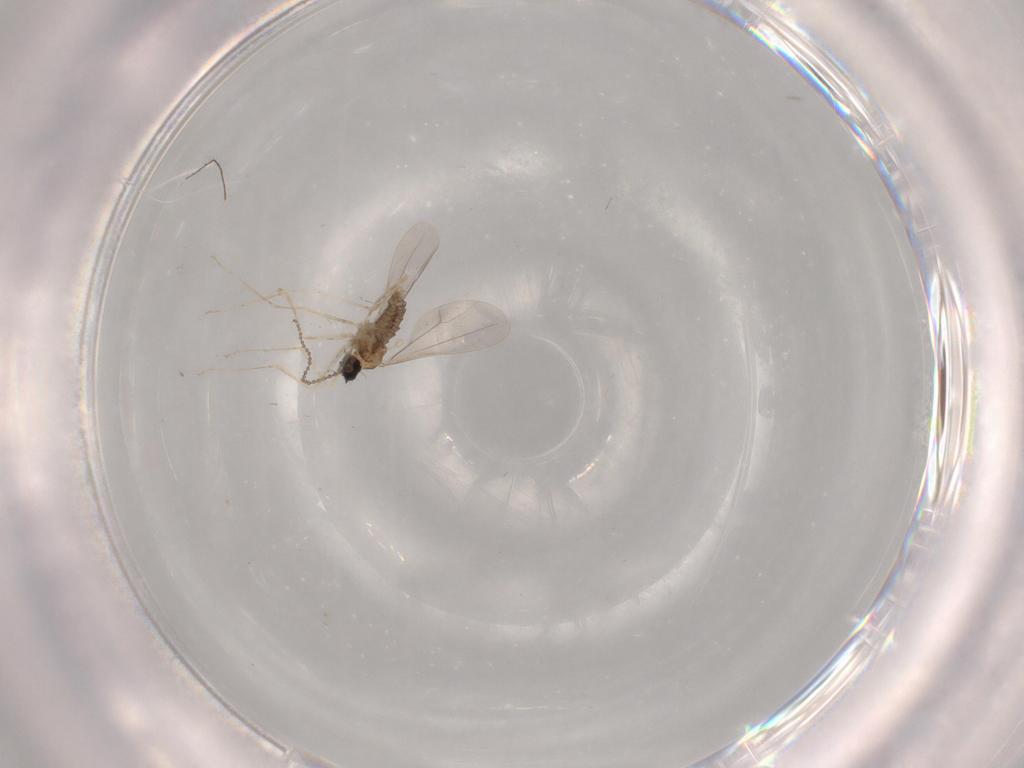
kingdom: Animalia
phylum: Arthropoda
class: Insecta
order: Diptera
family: Cecidomyiidae
